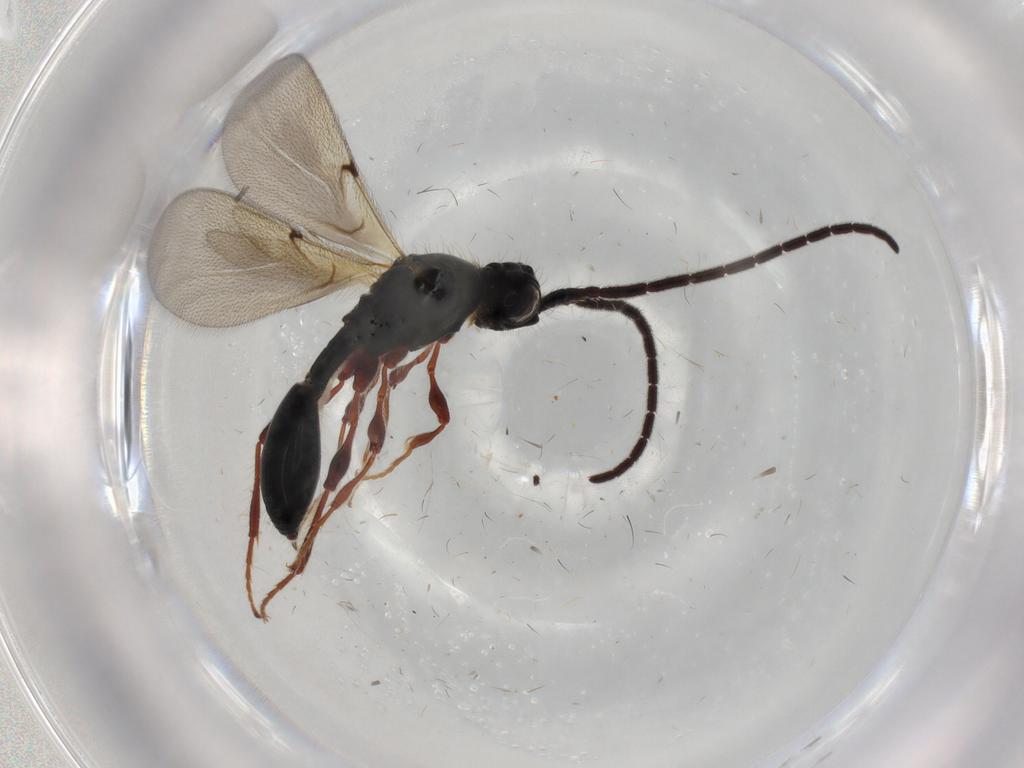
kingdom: Animalia
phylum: Arthropoda
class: Insecta
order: Hymenoptera
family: Diapriidae
